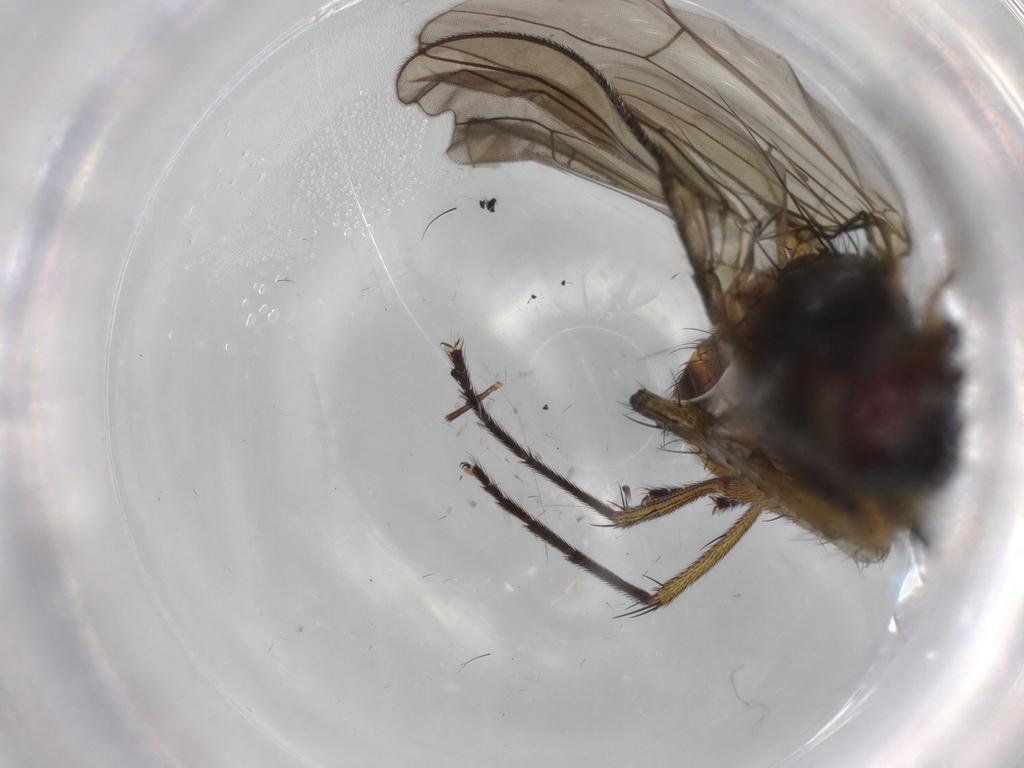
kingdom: Animalia
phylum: Arthropoda
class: Insecta
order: Diptera
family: Muscidae
